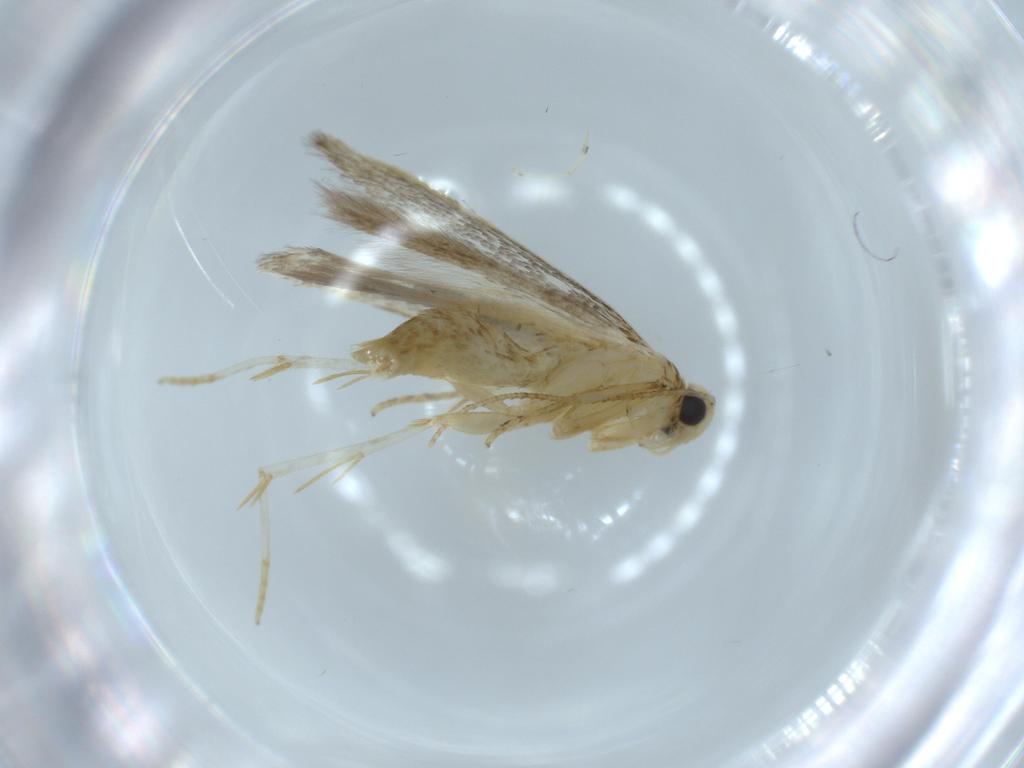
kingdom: Animalia
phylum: Arthropoda
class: Insecta
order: Lepidoptera
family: Autostichidae
